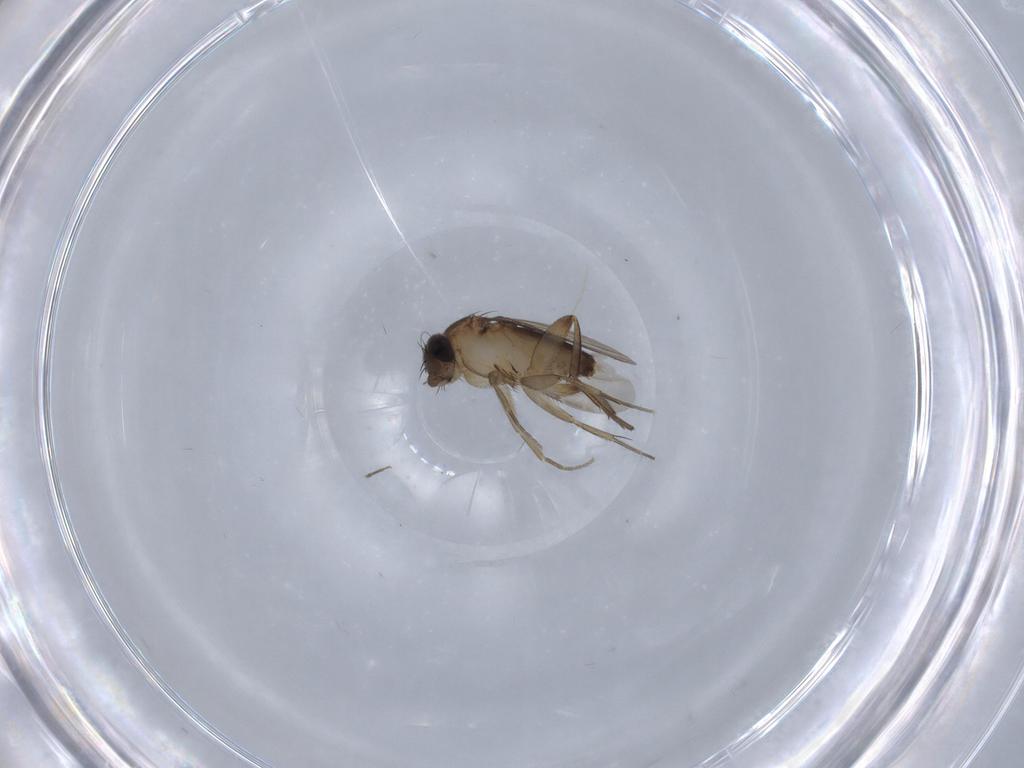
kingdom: Animalia
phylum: Arthropoda
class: Insecta
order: Diptera
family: Phoridae
